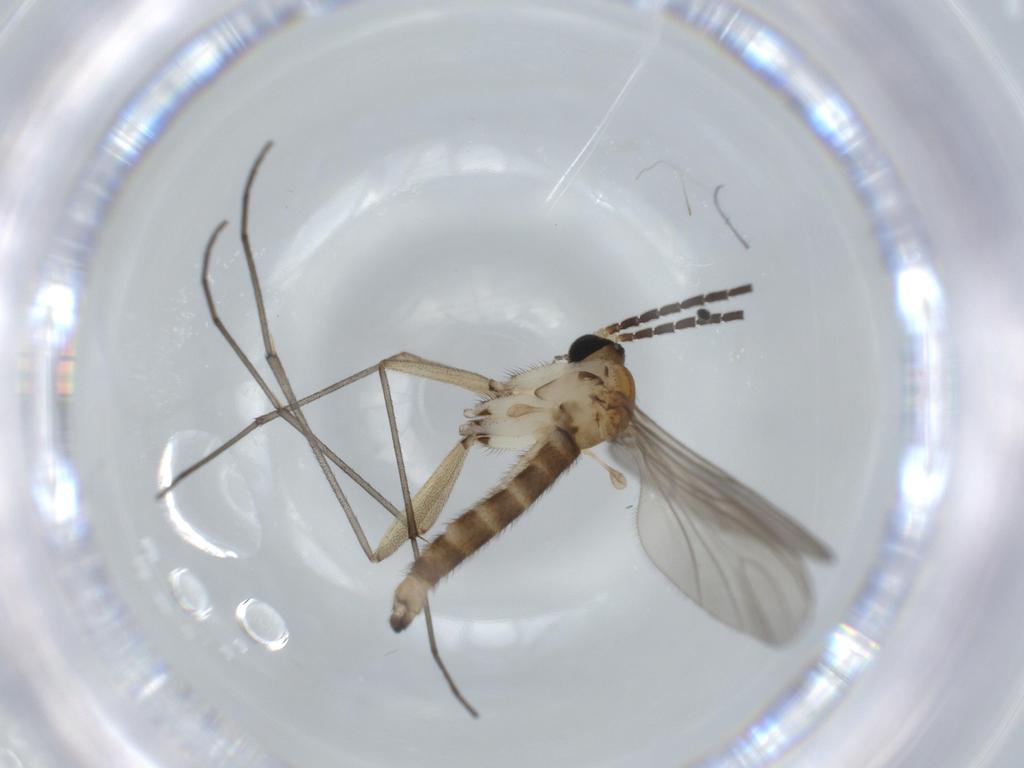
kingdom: Animalia
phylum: Arthropoda
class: Insecta
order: Diptera
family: Sciaridae
